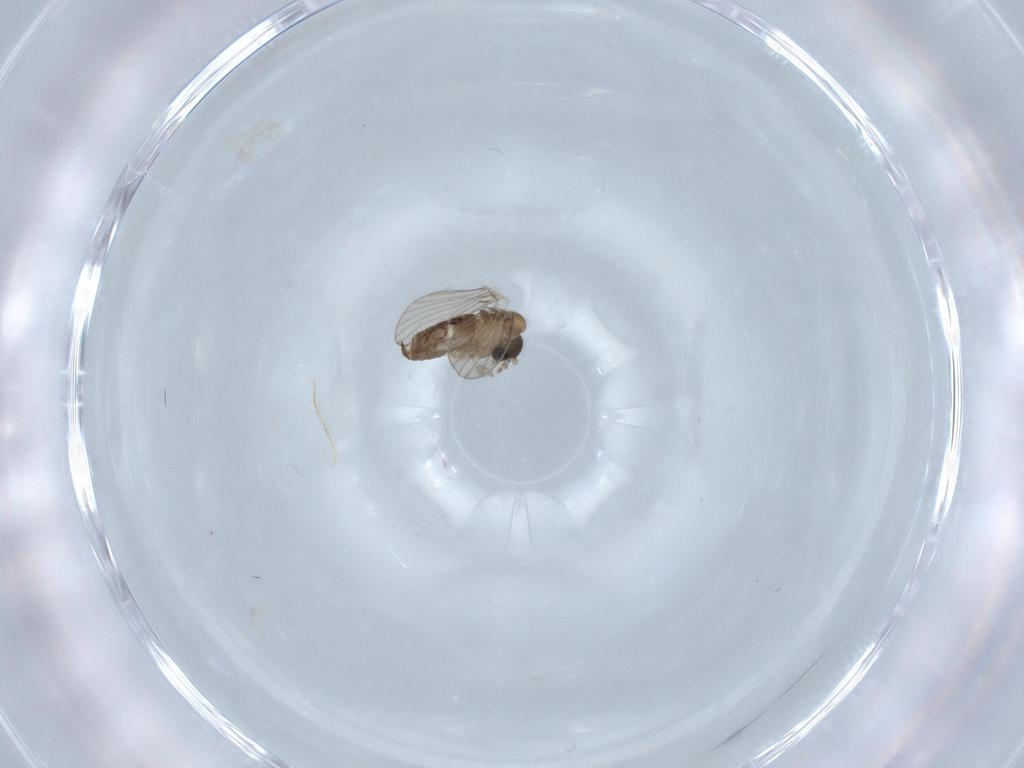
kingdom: Animalia
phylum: Arthropoda
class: Insecta
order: Diptera
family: Psychodidae
